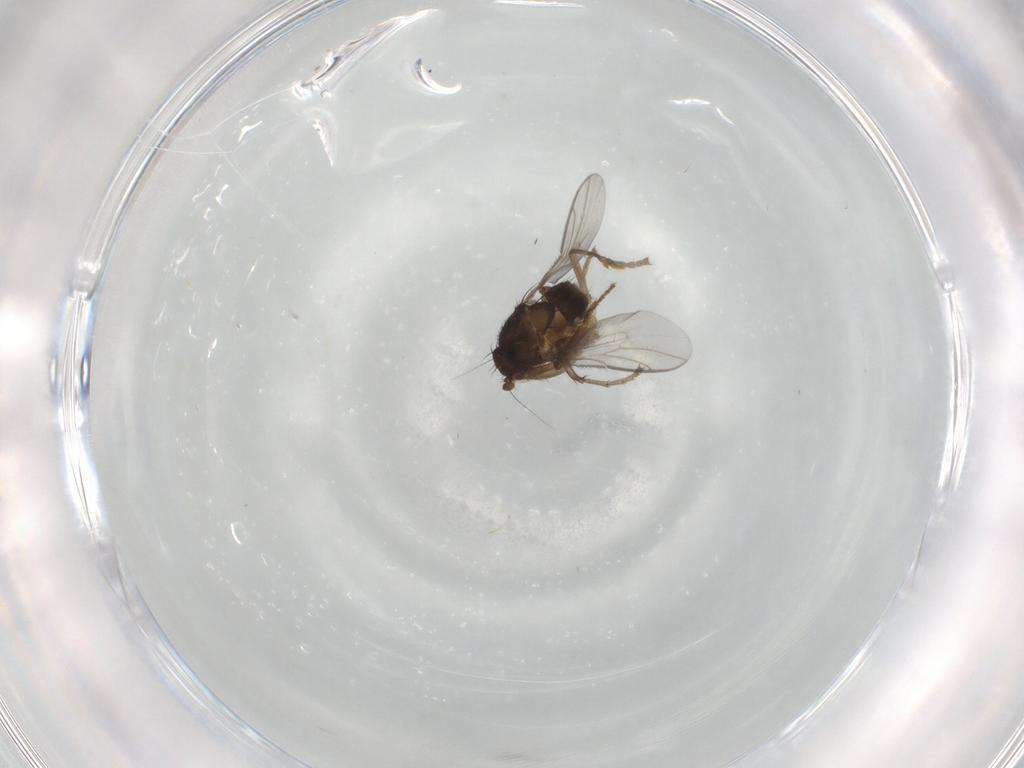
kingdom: Animalia
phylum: Arthropoda
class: Insecta
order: Diptera
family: Sphaeroceridae
